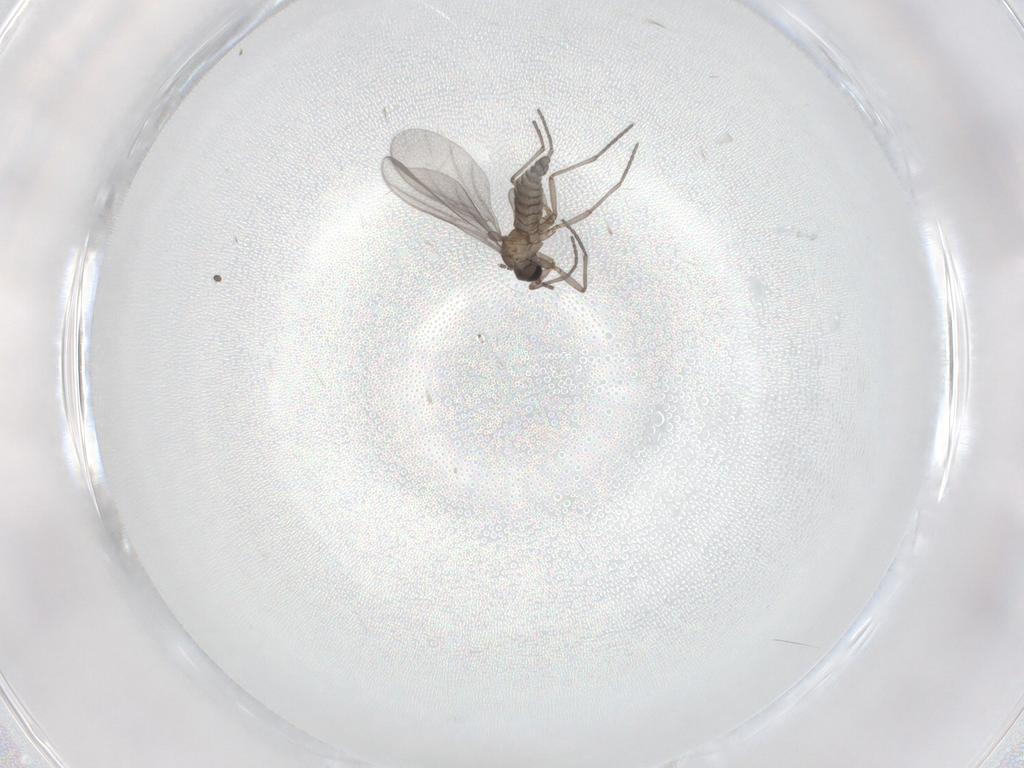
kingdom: Animalia
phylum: Arthropoda
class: Insecta
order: Diptera
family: Sciaridae
